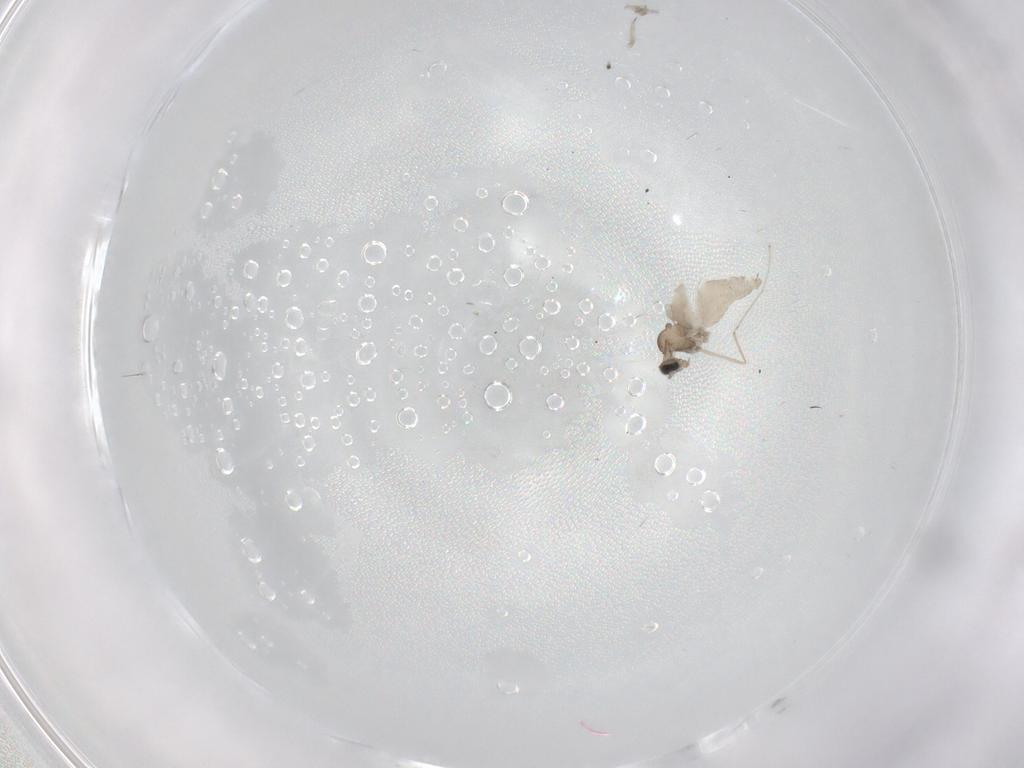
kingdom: Animalia
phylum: Arthropoda
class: Insecta
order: Diptera
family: Cecidomyiidae
